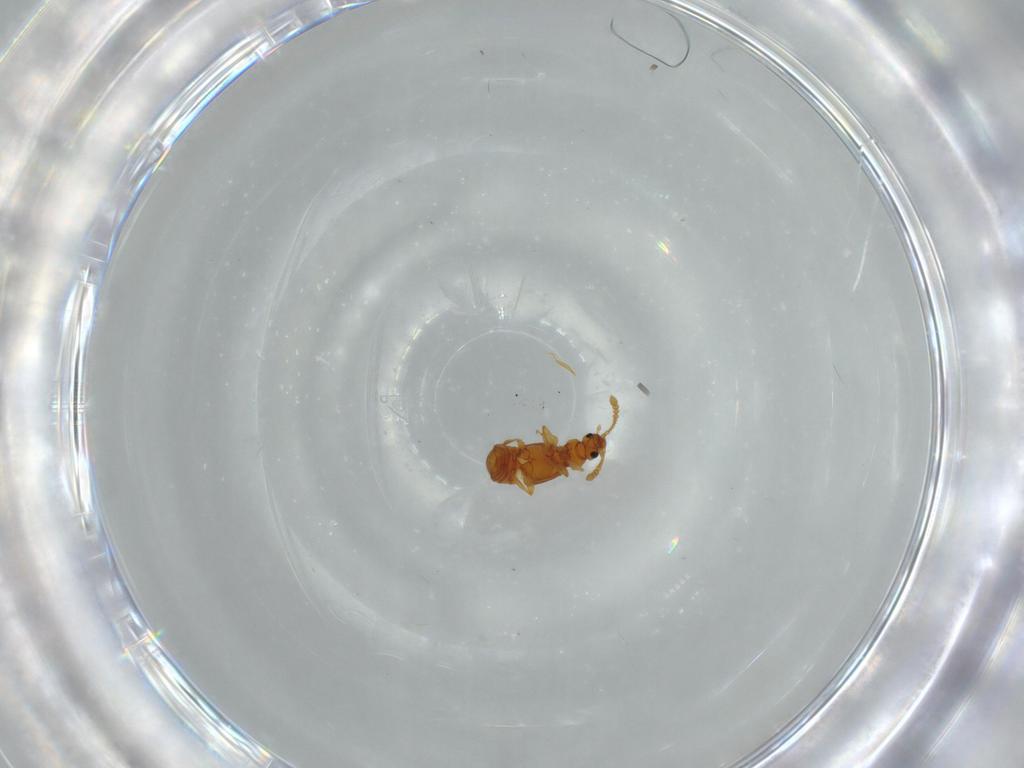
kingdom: Animalia
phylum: Arthropoda
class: Insecta
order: Coleoptera
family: Staphylinidae
